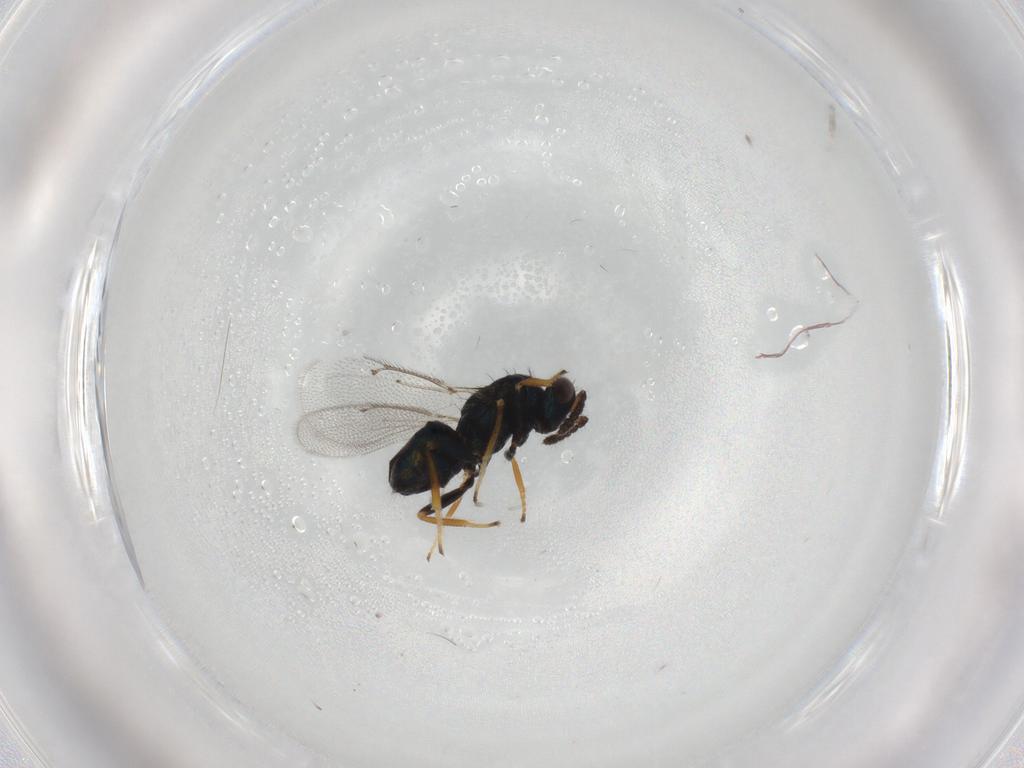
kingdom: Animalia
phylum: Arthropoda
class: Insecta
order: Hymenoptera
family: Eulophidae
